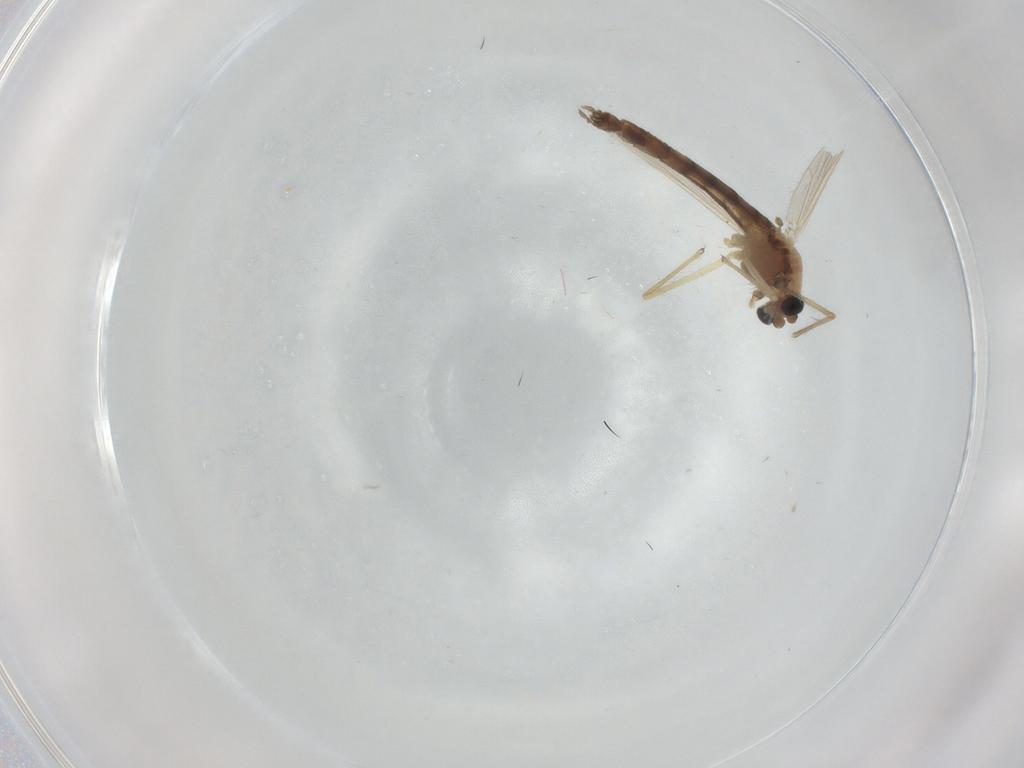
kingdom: Animalia
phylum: Arthropoda
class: Insecta
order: Diptera
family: Chironomidae
